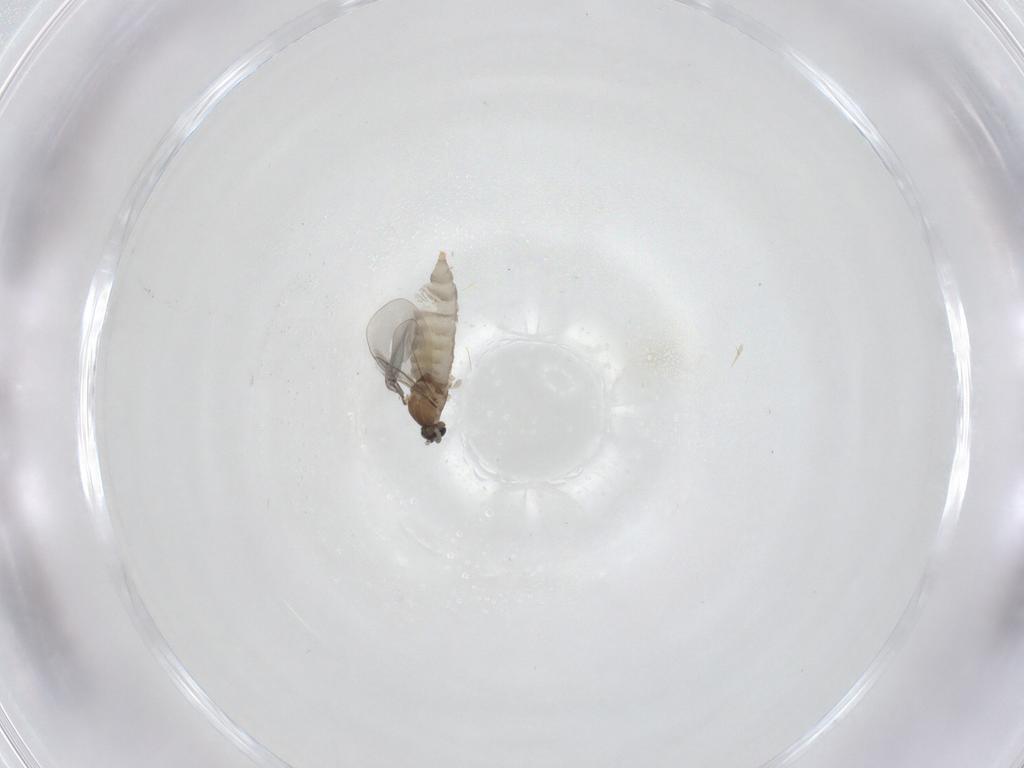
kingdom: Animalia
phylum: Arthropoda
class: Insecta
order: Diptera
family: Cecidomyiidae
